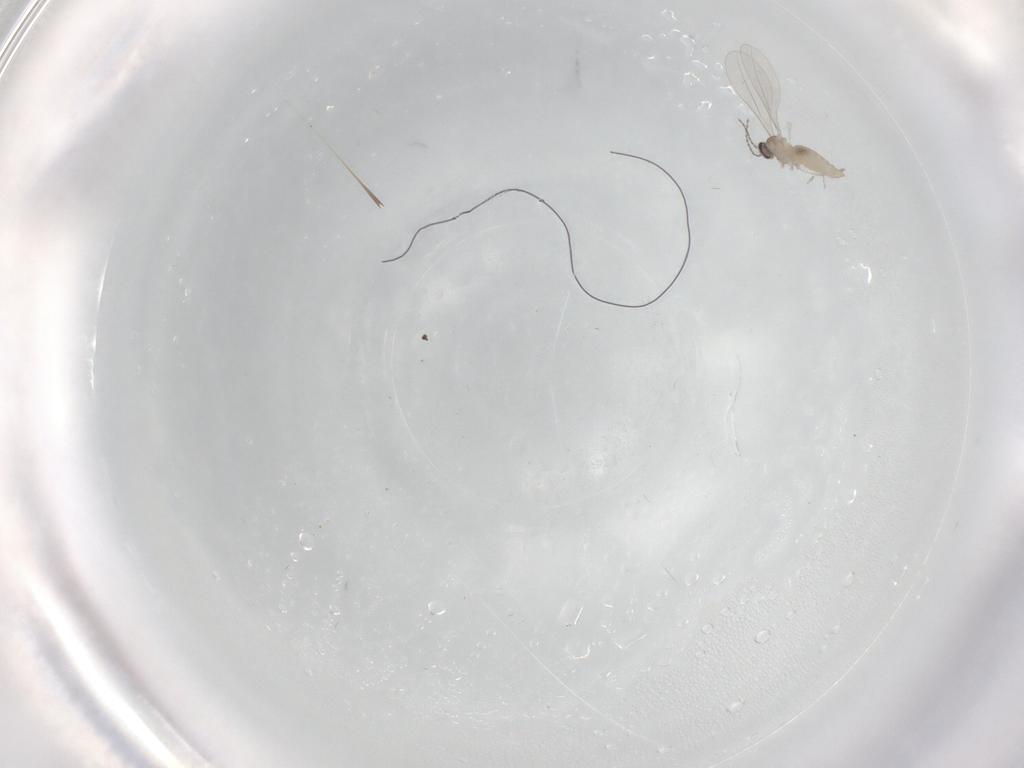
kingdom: Animalia
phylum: Arthropoda
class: Insecta
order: Diptera
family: Cecidomyiidae
